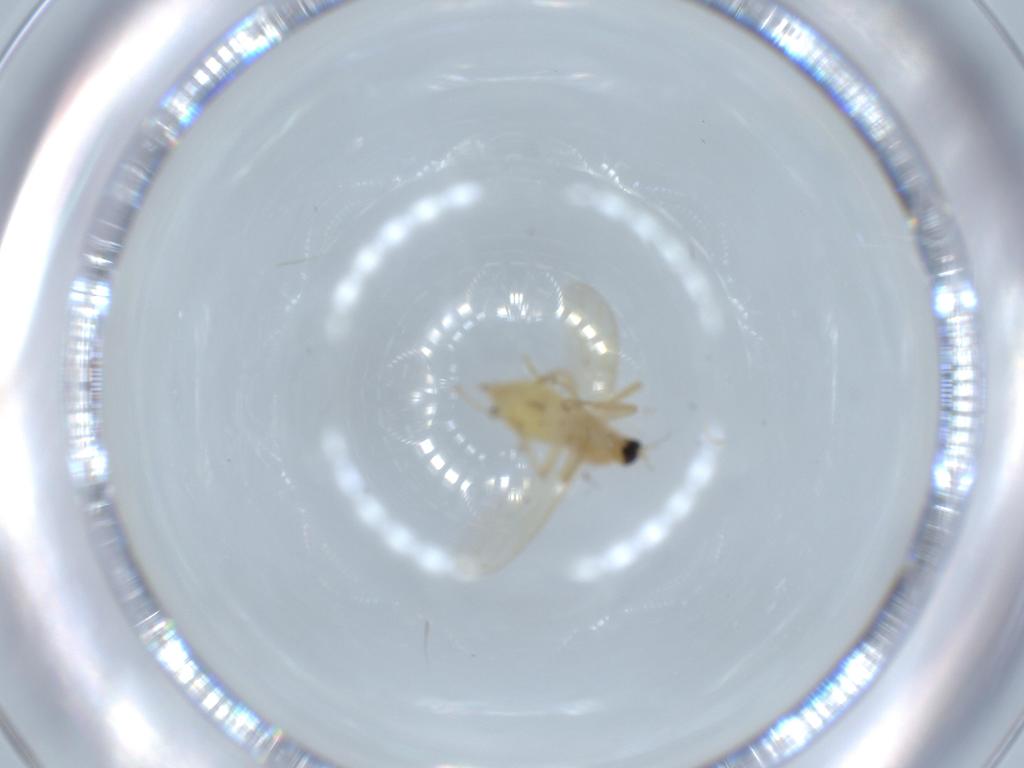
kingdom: Animalia
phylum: Arthropoda
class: Insecta
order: Diptera
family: Hybotidae
